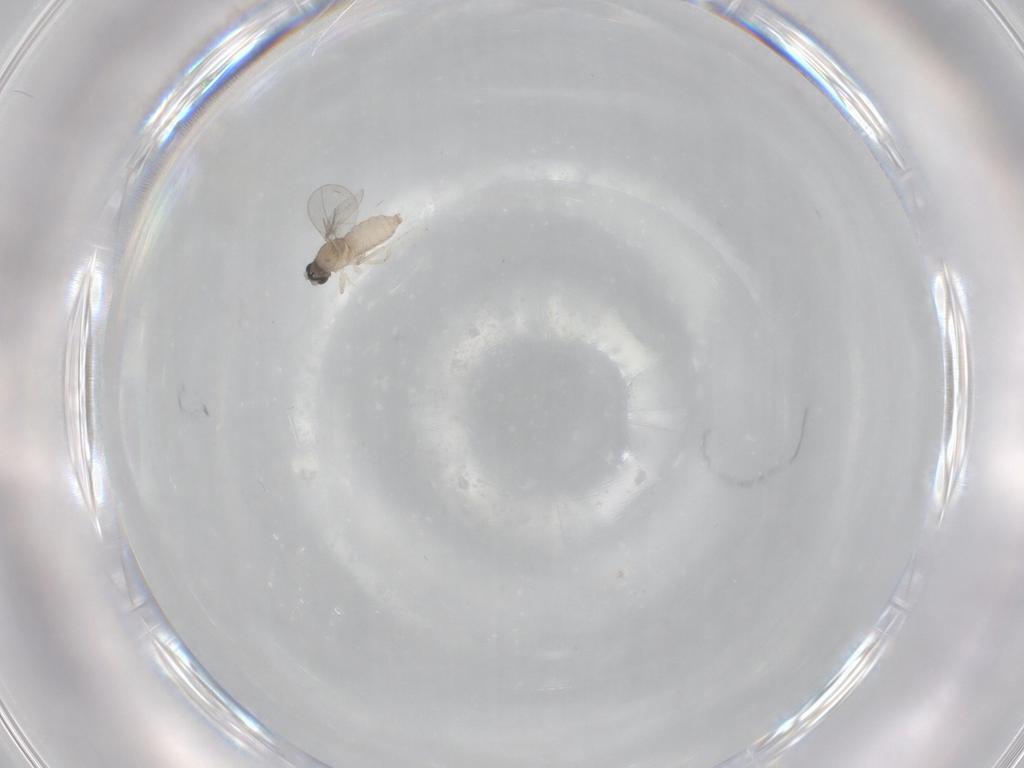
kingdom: Animalia
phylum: Arthropoda
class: Insecta
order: Diptera
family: Cecidomyiidae
